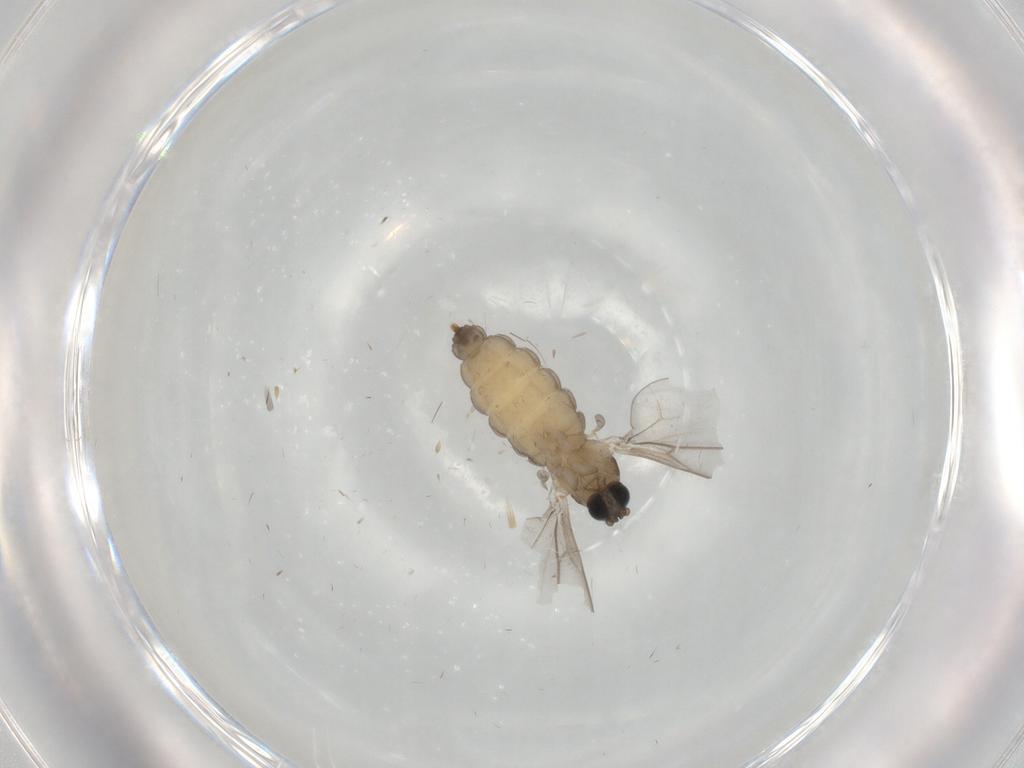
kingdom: Animalia
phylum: Arthropoda
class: Insecta
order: Diptera
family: Cecidomyiidae
